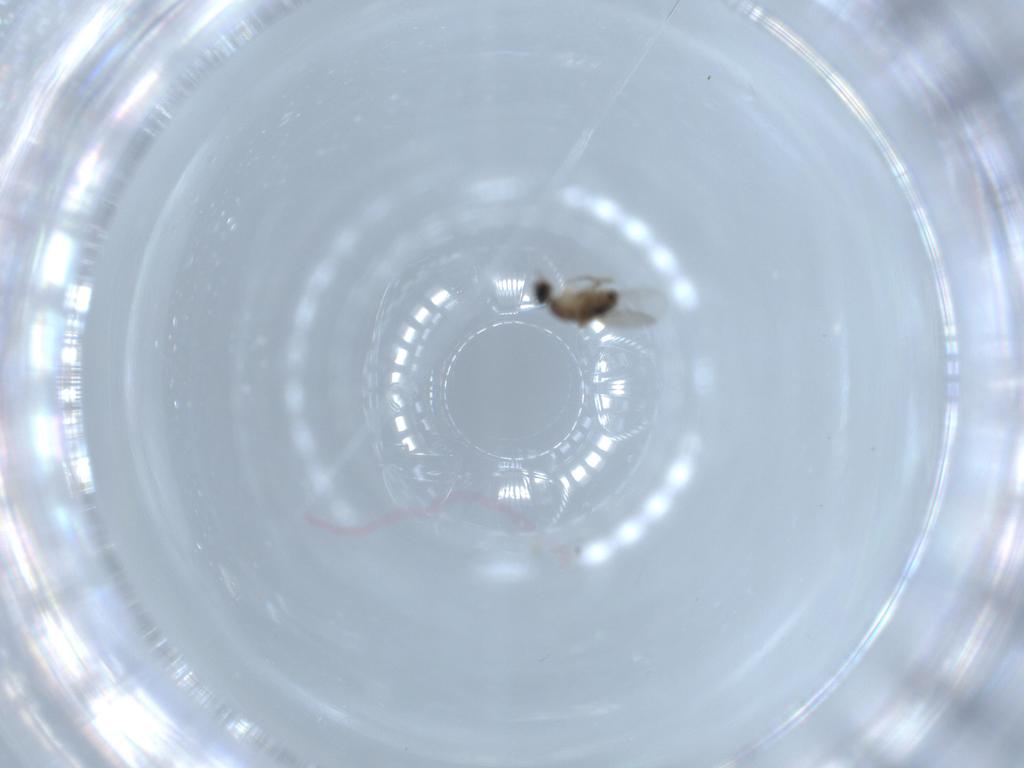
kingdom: Animalia
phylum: Arthropoda
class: Insecta
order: Diptera
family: Phoridae
